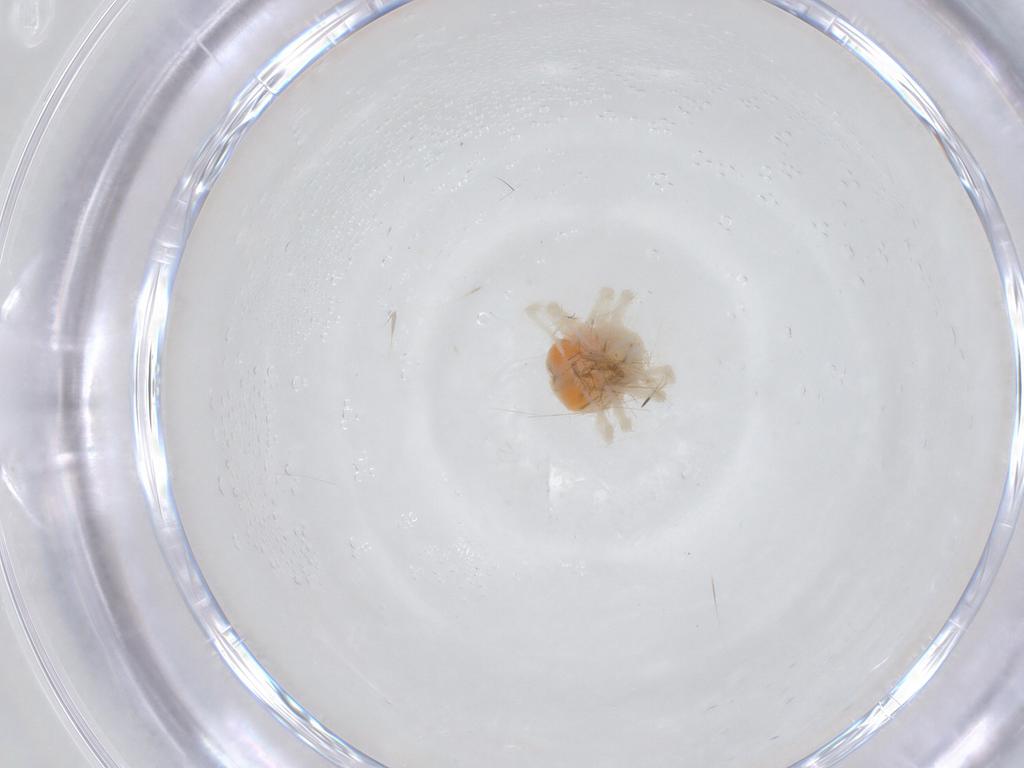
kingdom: Animalia
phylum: Arthropoda
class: Arachnida
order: Trombidiformes
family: Anystidae
